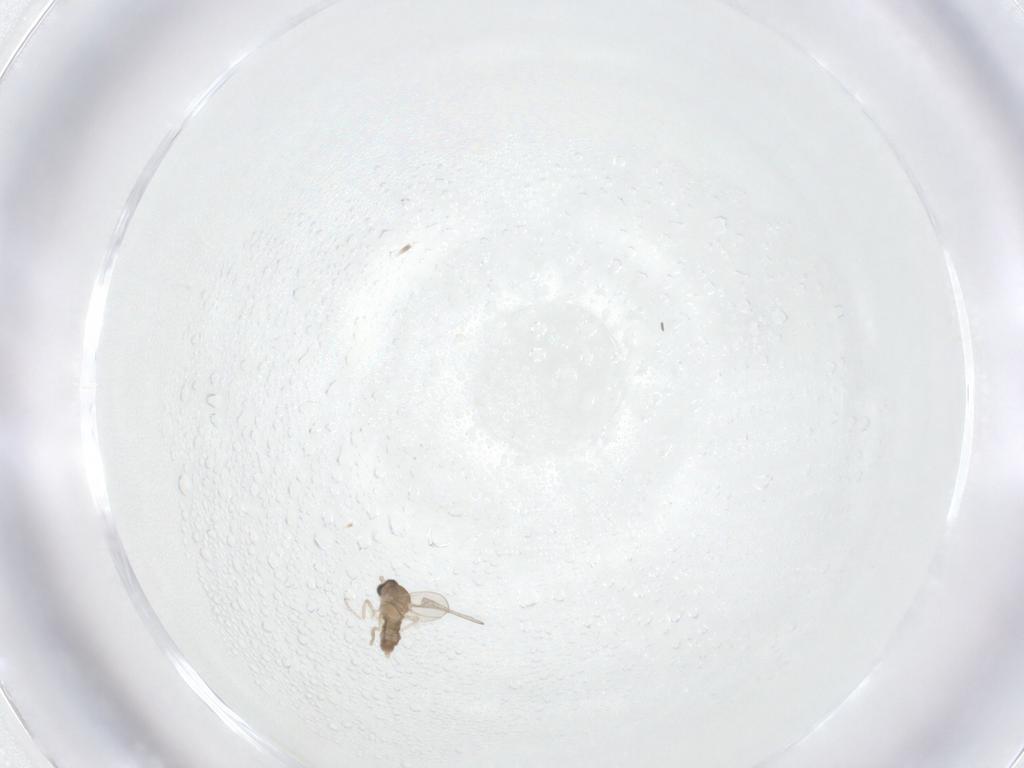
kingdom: Animalia
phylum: Arthropoda
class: Insecta
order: Diptera
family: Cecidomyiidae
